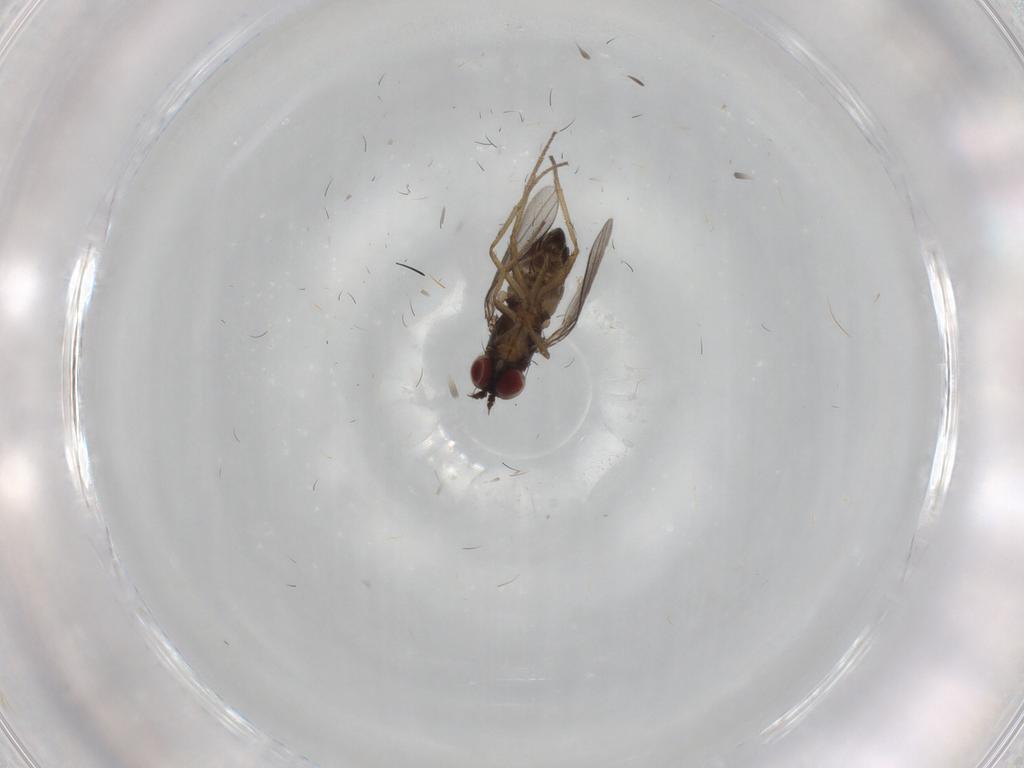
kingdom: Animalia
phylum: Arthropoda
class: Insecta
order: Diptera
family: Dolichopodidae
